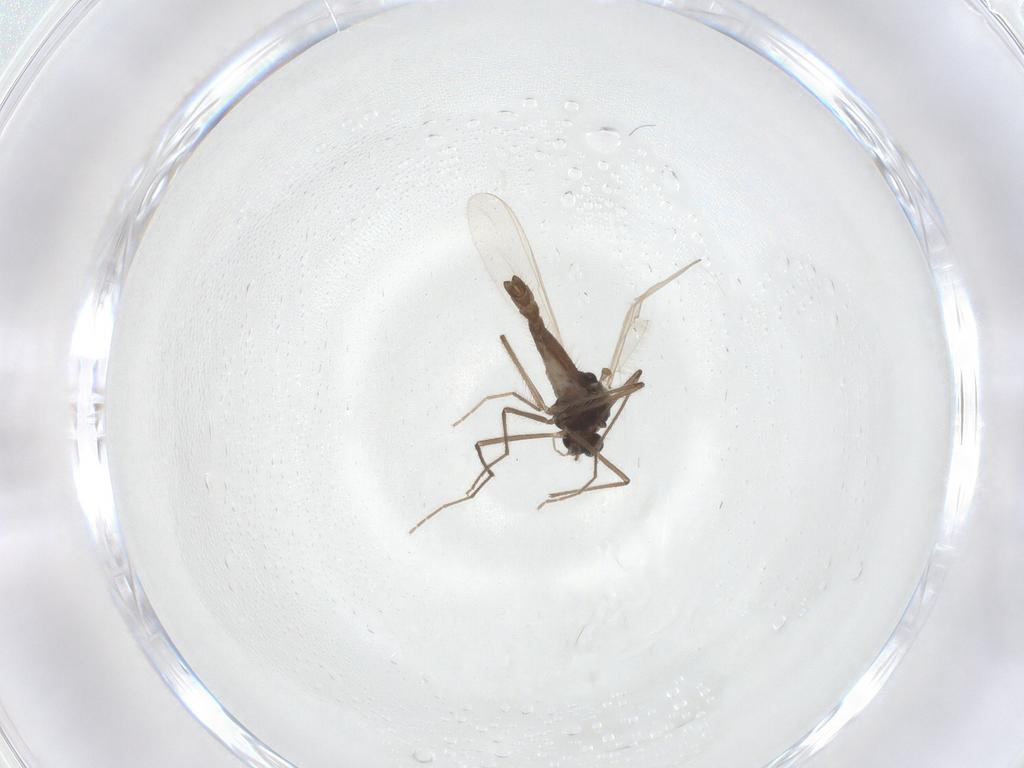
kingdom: Animalia
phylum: Arthropoda
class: Insecta
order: Diptera
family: Chironomidae
